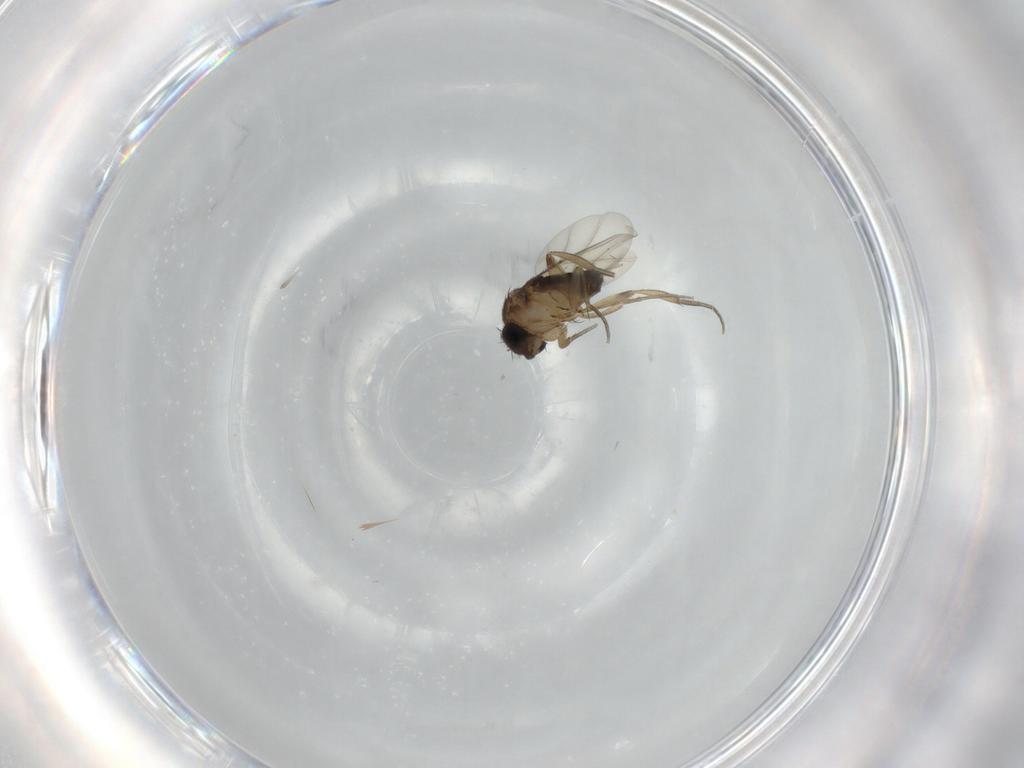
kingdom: Animalia
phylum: Arthropoda
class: Insecta
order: Diptera
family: Phoridae
